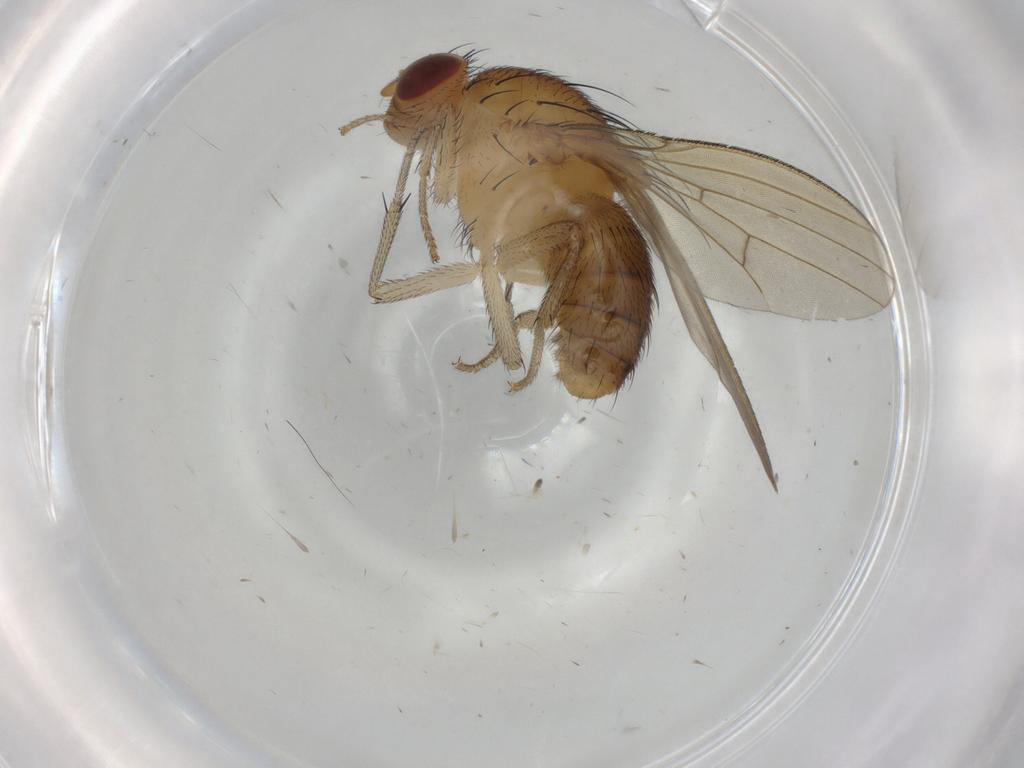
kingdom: Animalia
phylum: Arthropoda
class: Insecta
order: Diptera
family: Lauxaniidae
